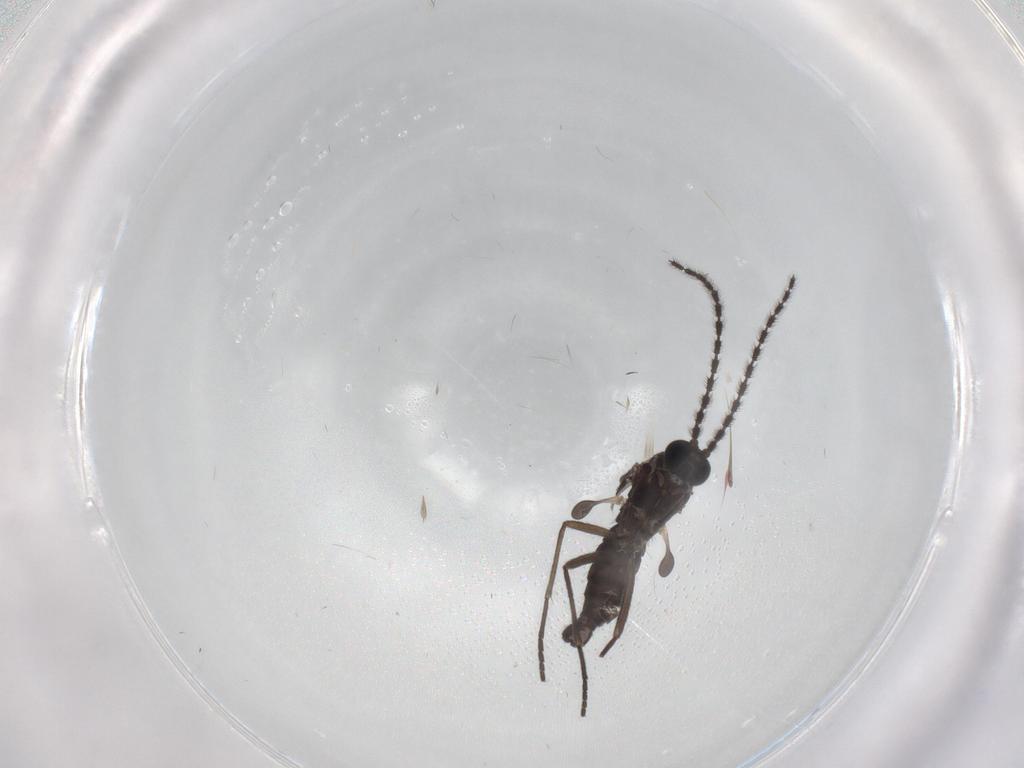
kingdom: Animalia
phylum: Arthropoda
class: Insecta
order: Diptera
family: Sciaridae
